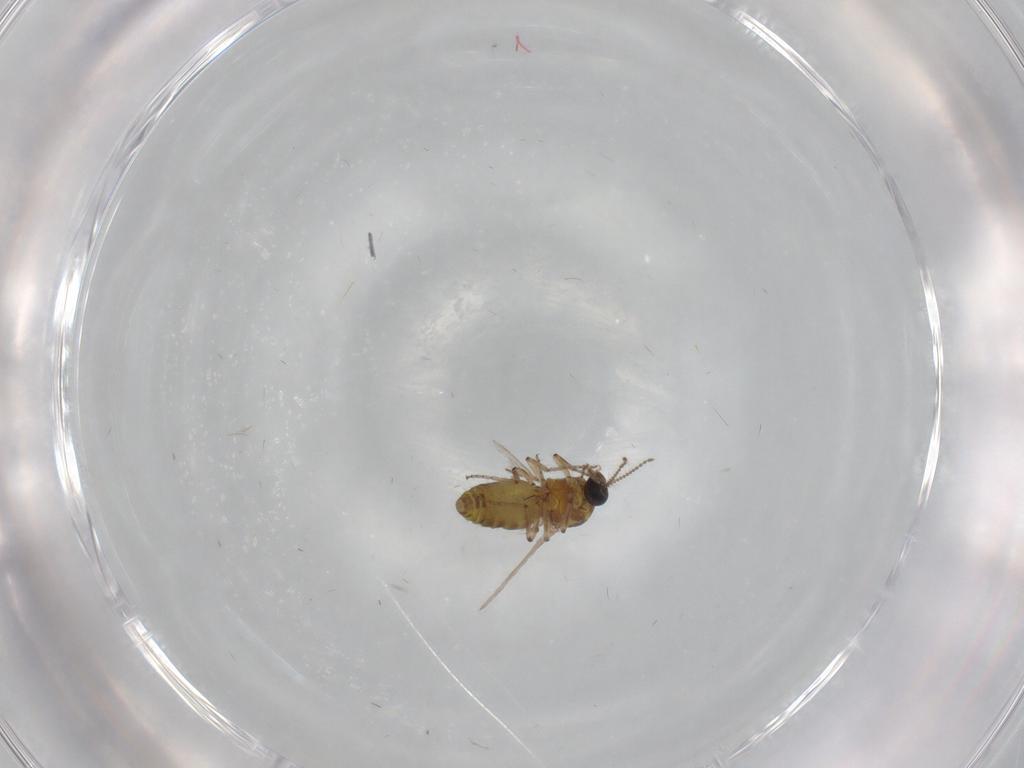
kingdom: Animalia
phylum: Arthropoda
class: Insecta
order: Diptera
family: Ceratopogonidae
